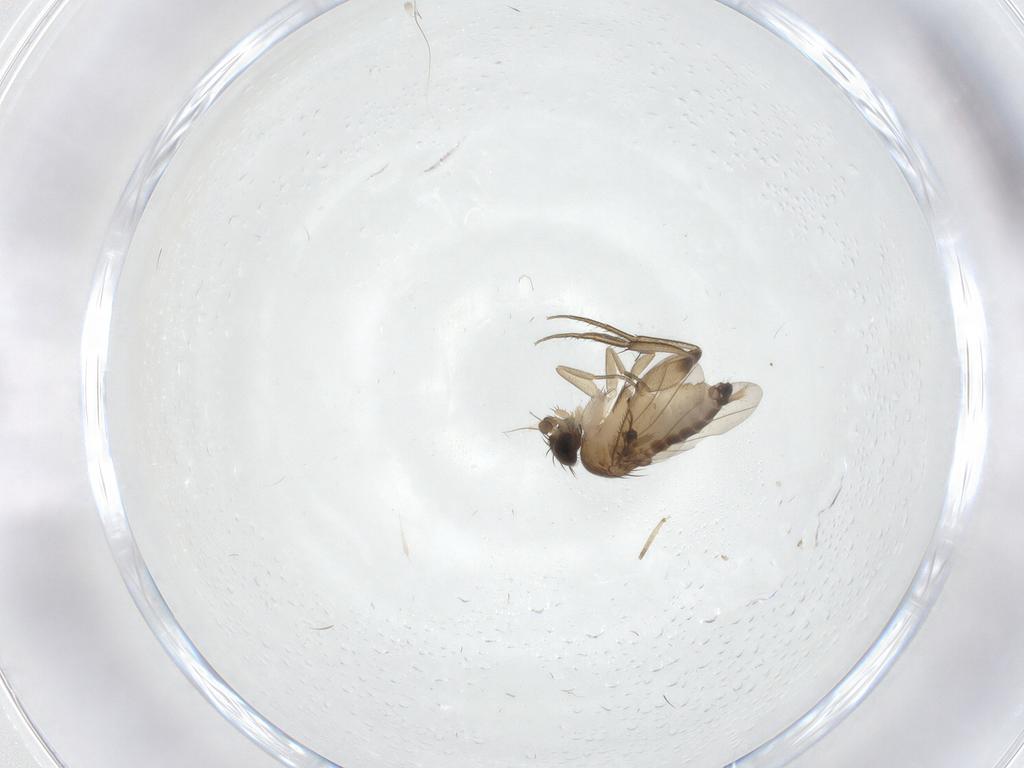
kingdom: Animalia
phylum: Arthropoda
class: Insecta
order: Diptera
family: Phoridae
